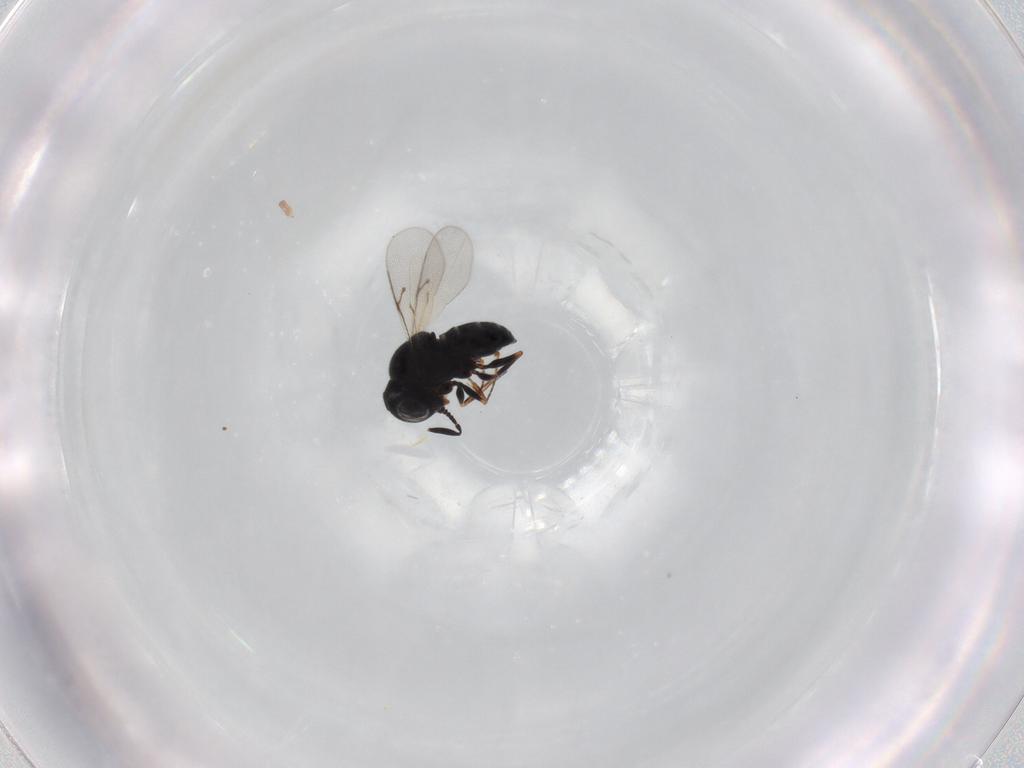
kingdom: Animalia
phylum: Arthropoda
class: Insecta
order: Hymenoptera
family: Scelionidae
